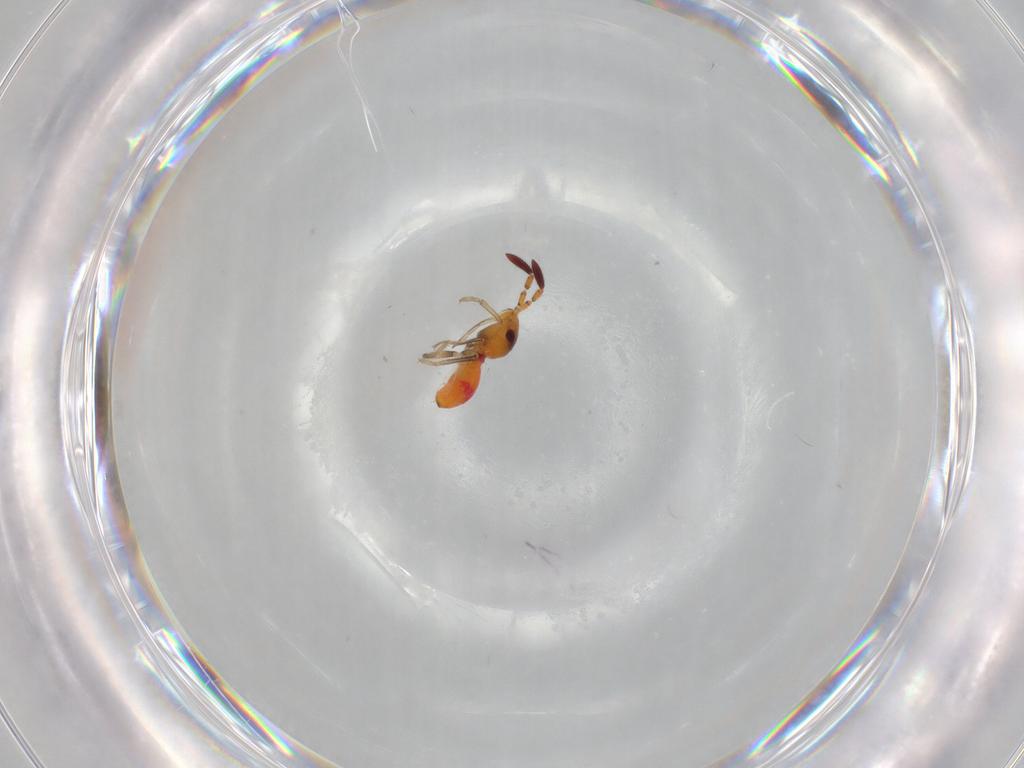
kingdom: Animalia
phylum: Arthropoda
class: Insecta
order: Hemiptera
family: Rhyparochromidae
